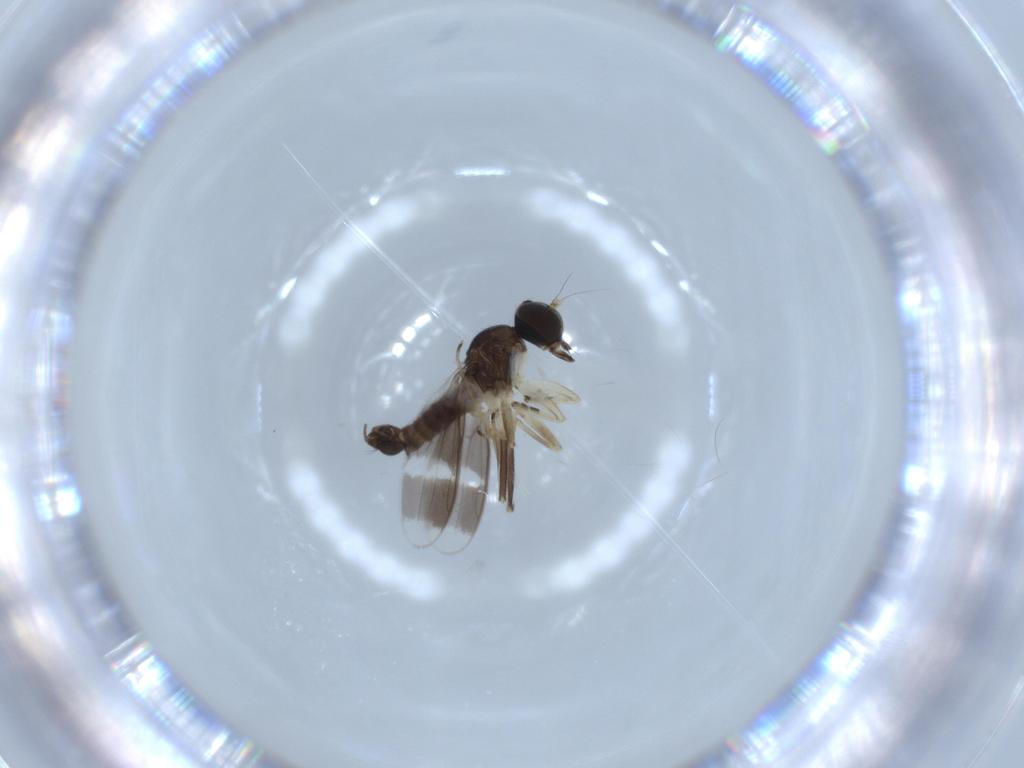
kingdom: Animalia
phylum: Arthropoda
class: Insecta
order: Diptera
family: Hybotidae
